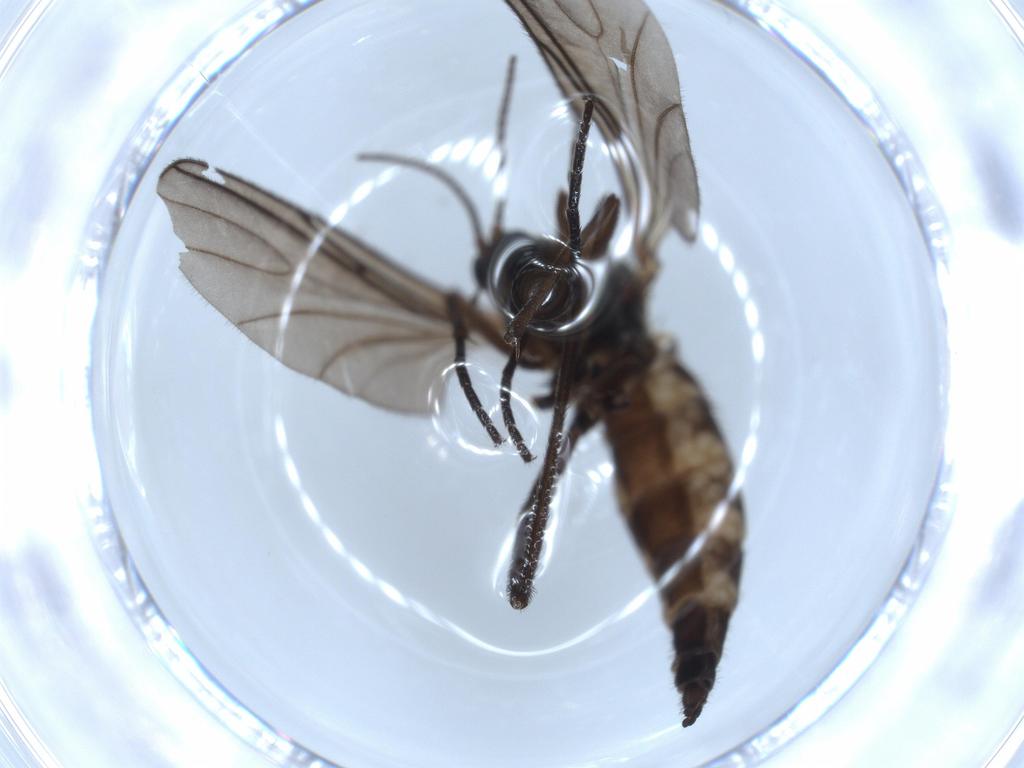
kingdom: Animalia
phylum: Arthropoda
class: Insecta
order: Diptera
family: Sciaridae
